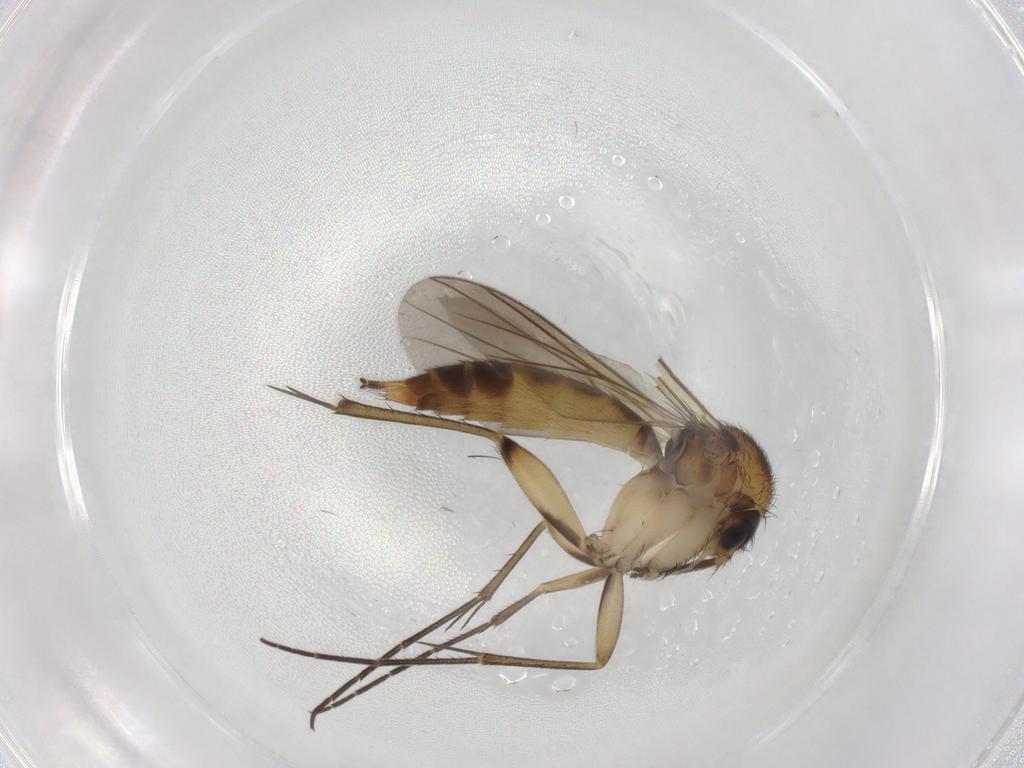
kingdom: Animalia
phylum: Arthropoda
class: Insecta
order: Diptera
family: Mycetophilidae
